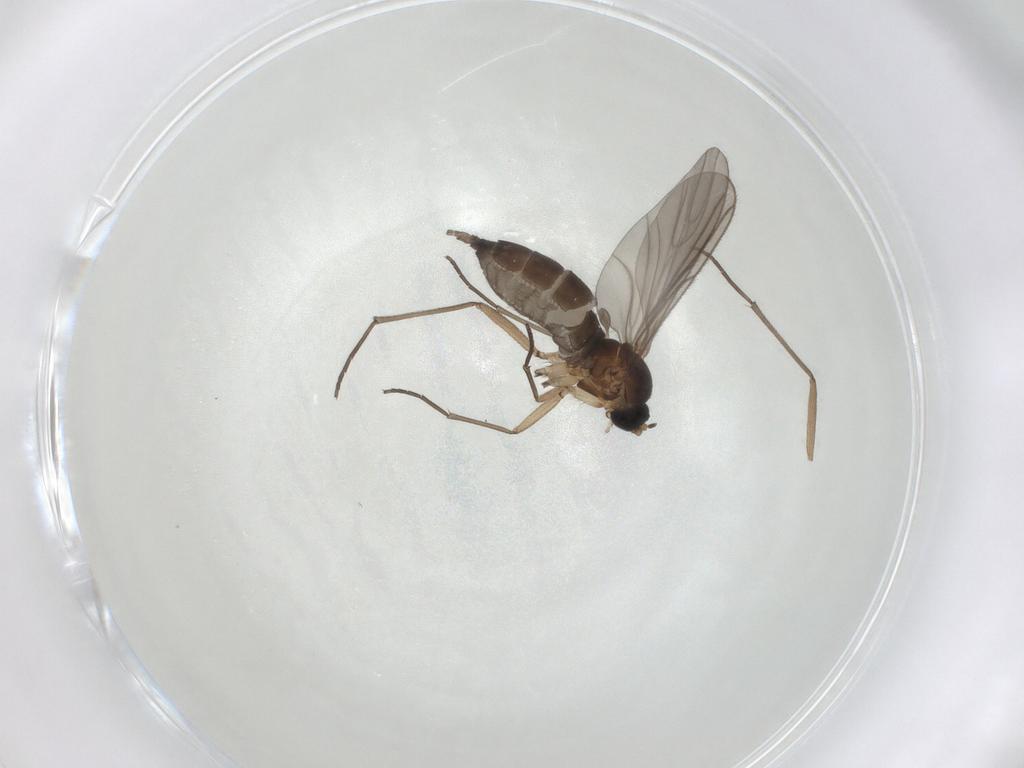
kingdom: Animalia
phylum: Arthropoda
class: Insecta
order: Diptera
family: Sciaridae
